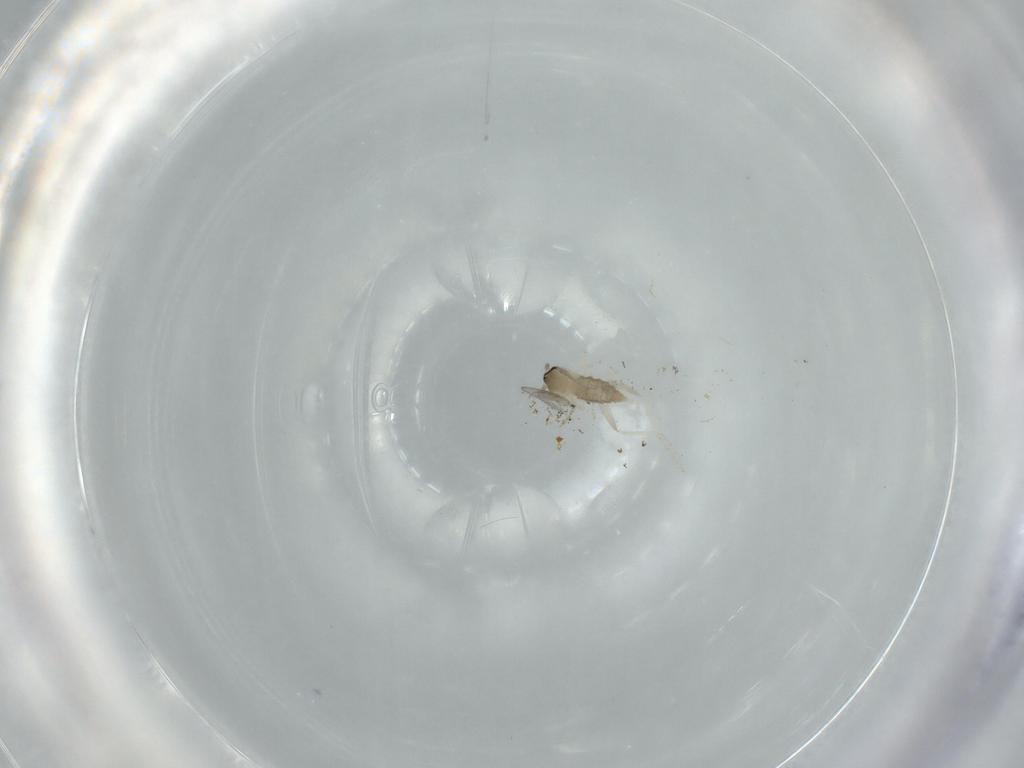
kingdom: Animalia
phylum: Arthropoda
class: Insecta
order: Diptera
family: Cecidomyiidae
